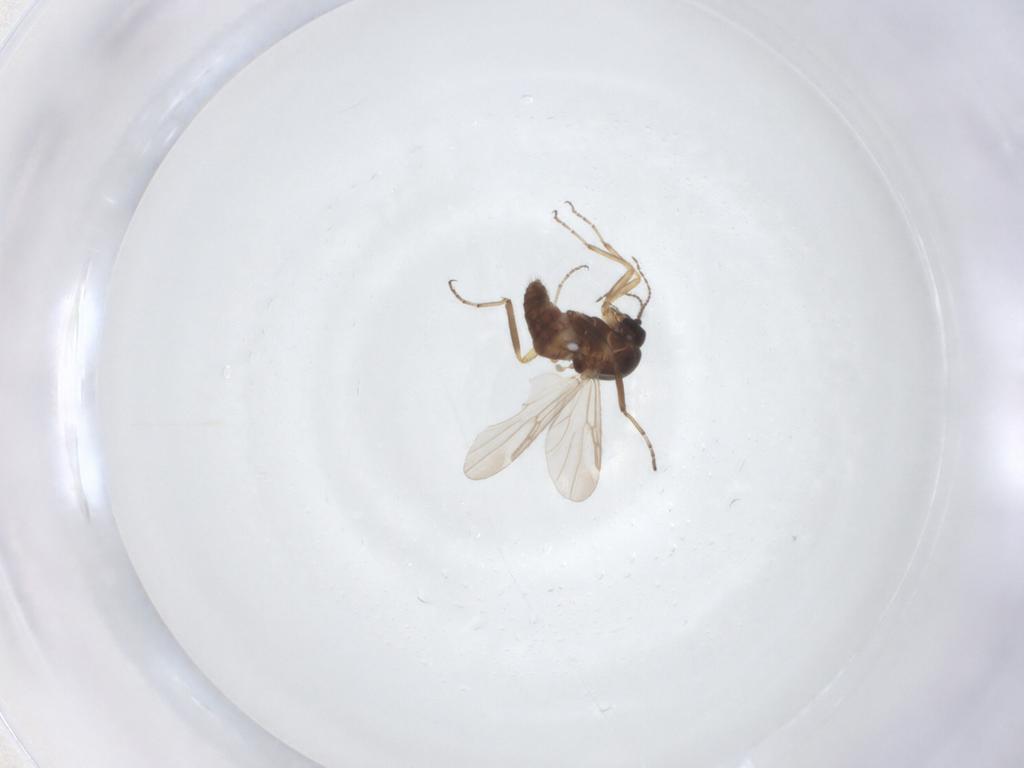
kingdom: Animalia
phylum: Arthropoda
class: Insecta
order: Diptera
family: Ceratopogonidae
